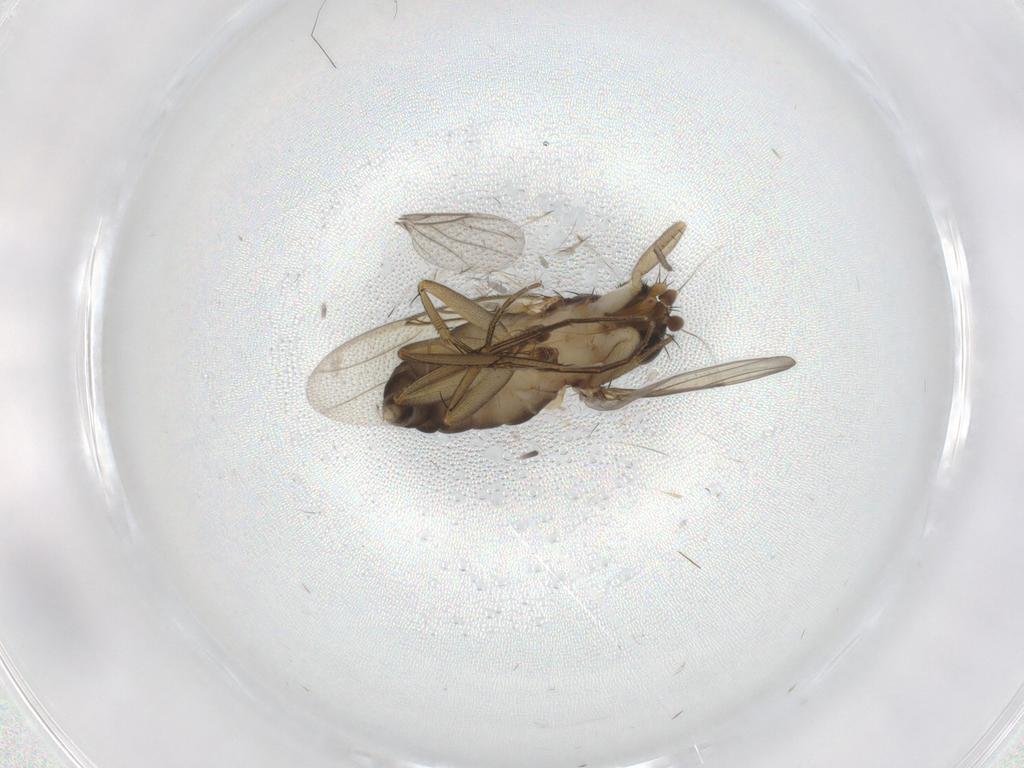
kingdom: Animalia
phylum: Arthropoda
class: Insecta
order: Diptera
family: Phoridae
